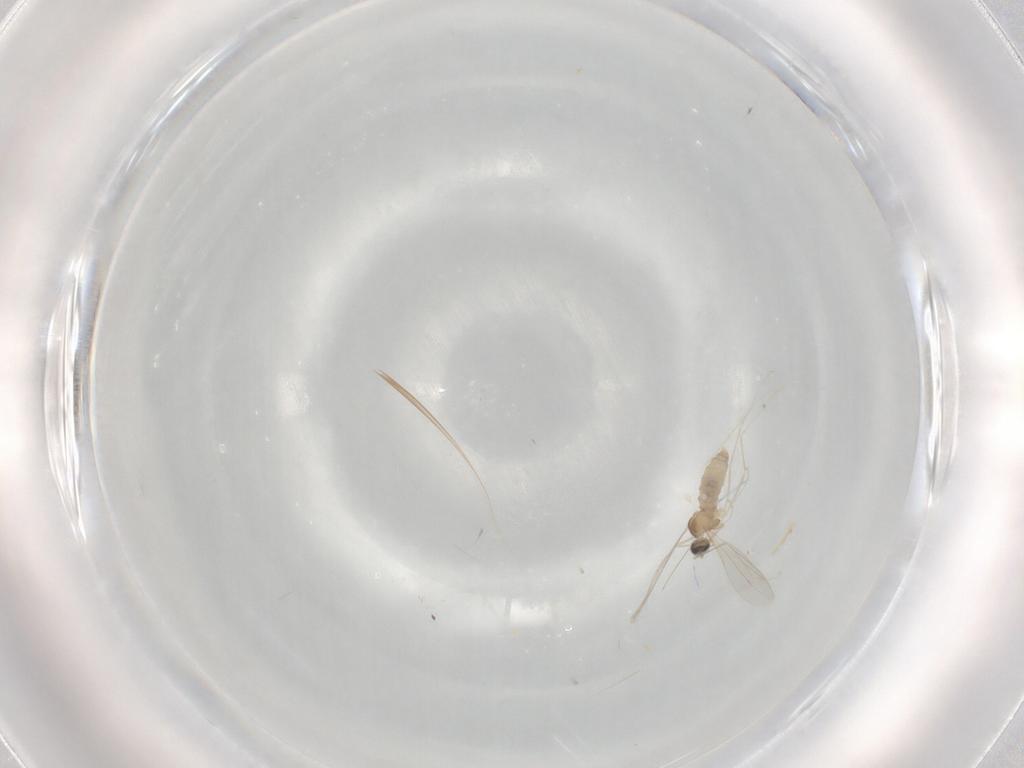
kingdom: Animalia
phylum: Arthropoda
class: Insecta
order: Diptera
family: Cecidomyiidae
